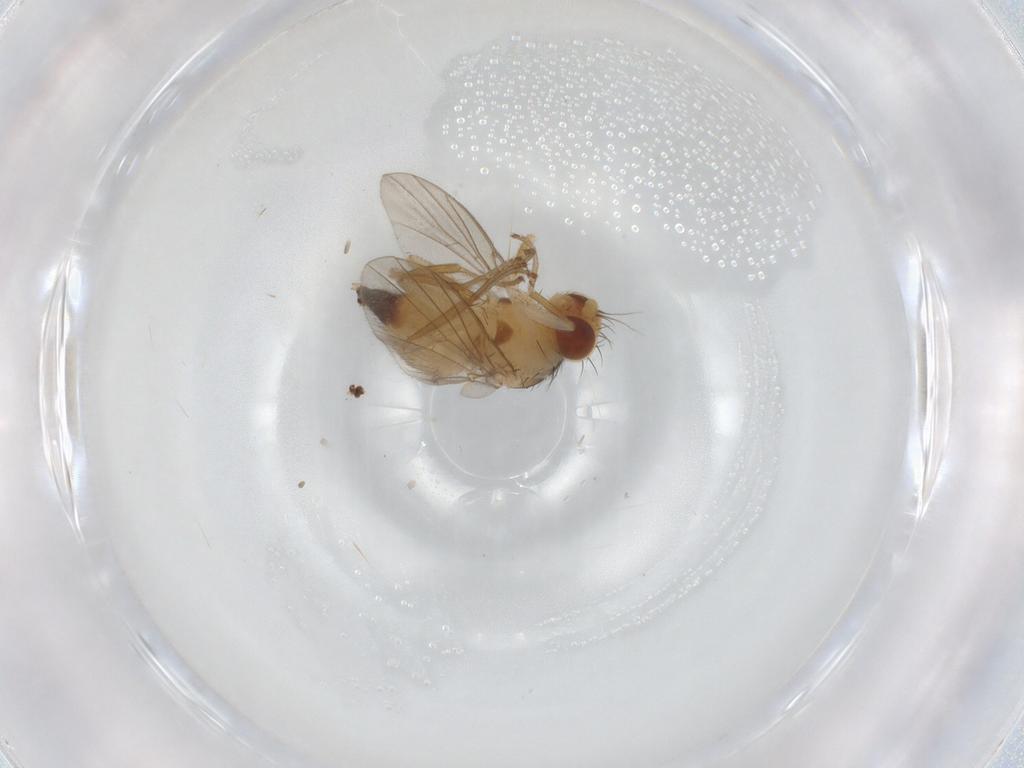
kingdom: Animalia
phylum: Arthropoda
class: Insecta
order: Diptera
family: Agromyzidae
